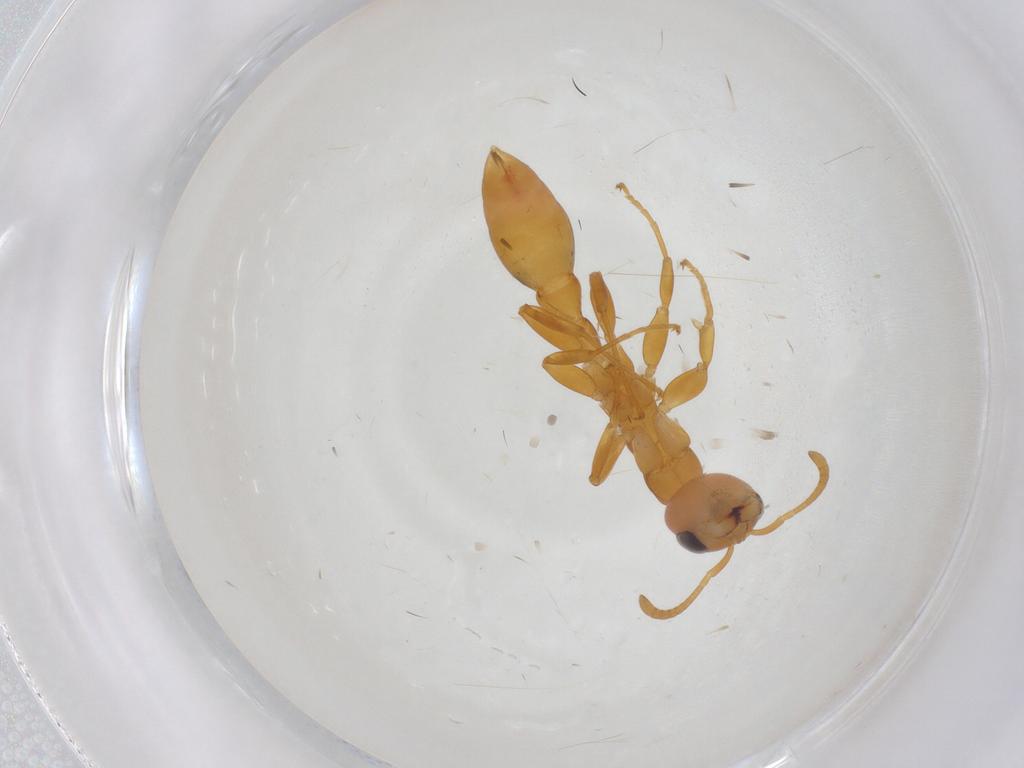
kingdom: Animalia
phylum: Arthropoda
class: Insecta
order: Hymenoptera
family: Formicidae
